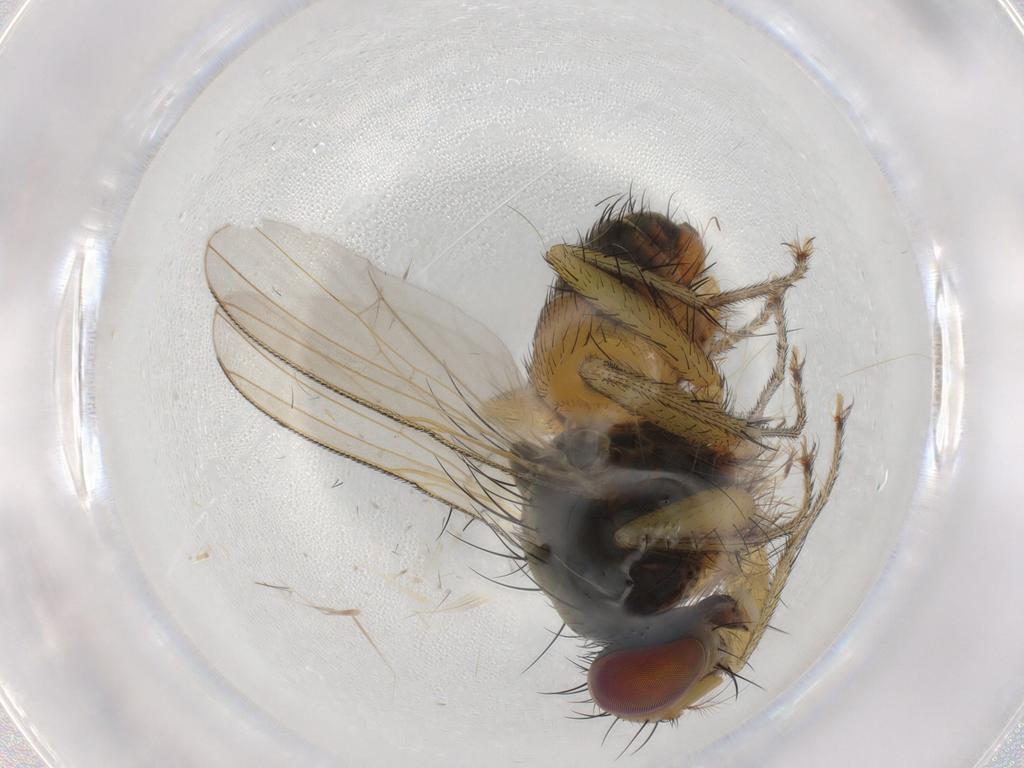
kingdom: Animalia
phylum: Arthropoda
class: Insecta
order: Diptera
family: Muscidae
